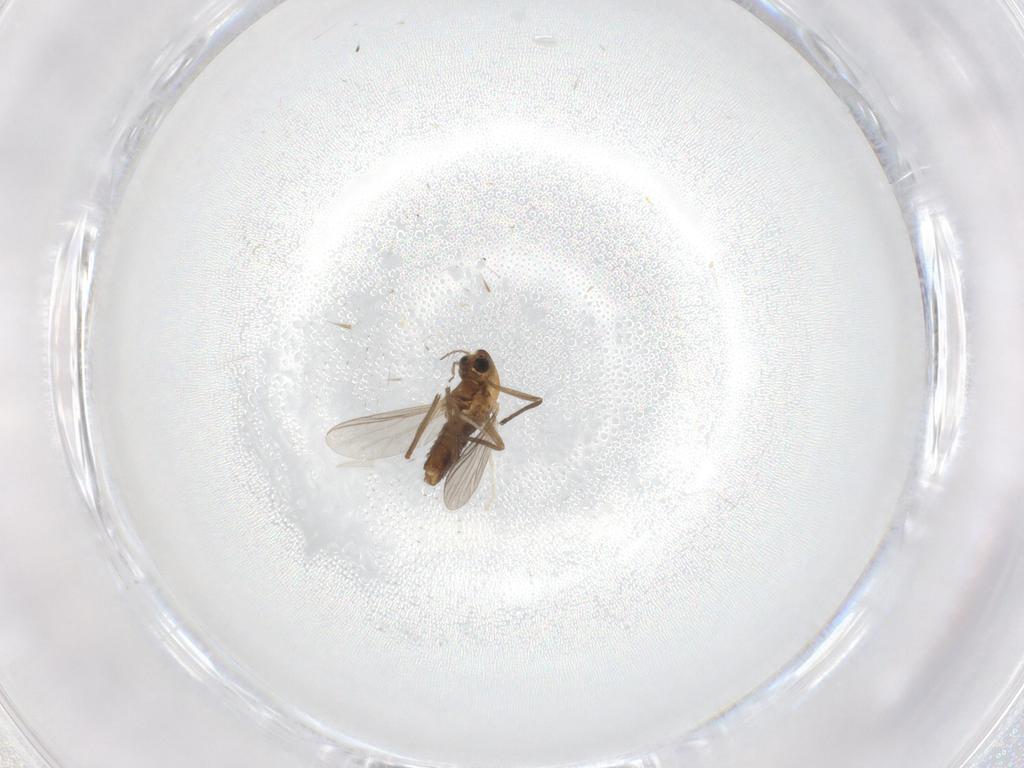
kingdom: Animalia
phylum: Arthropoda
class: Insecta
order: Diptera
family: Chironomidae
